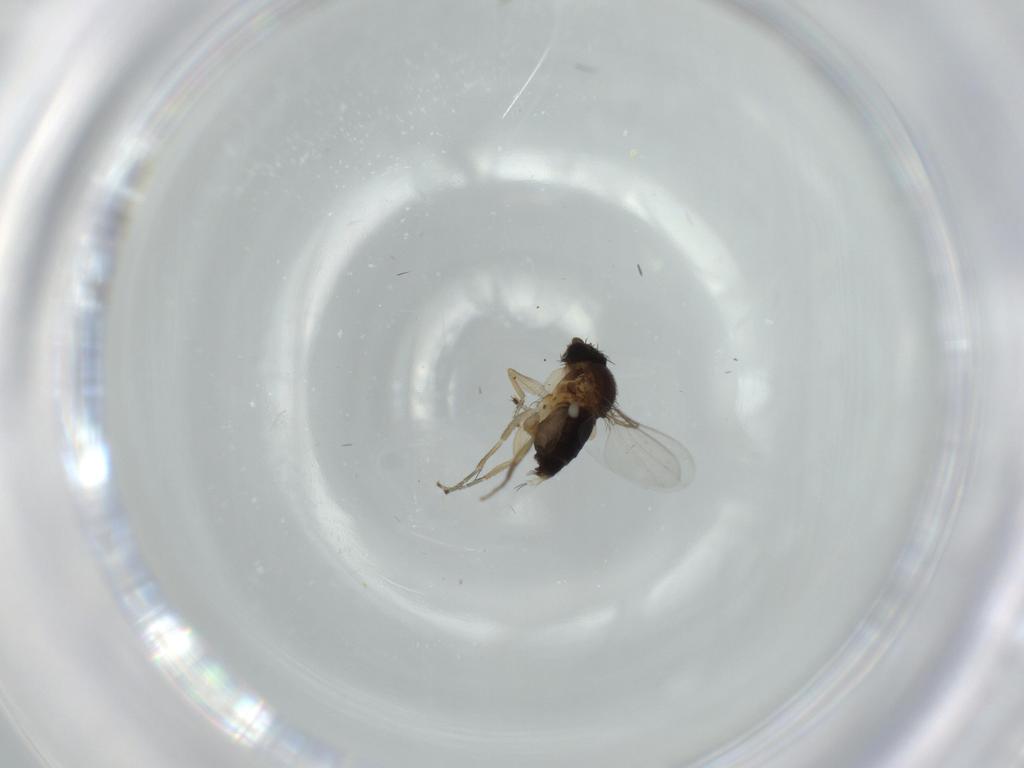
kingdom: Animalia
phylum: Arthropoda
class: Insecta
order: Diptera
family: Phoridae
